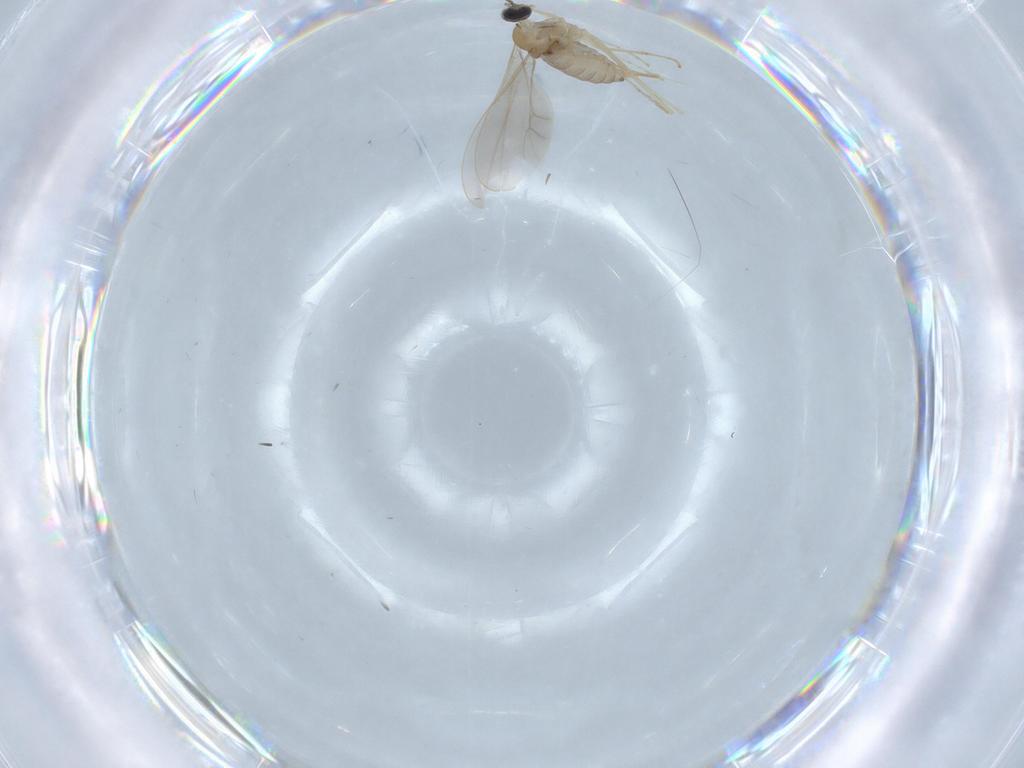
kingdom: Animalia
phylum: Arthropoda
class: Insecta
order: Diptera
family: Cecidomyiidae
